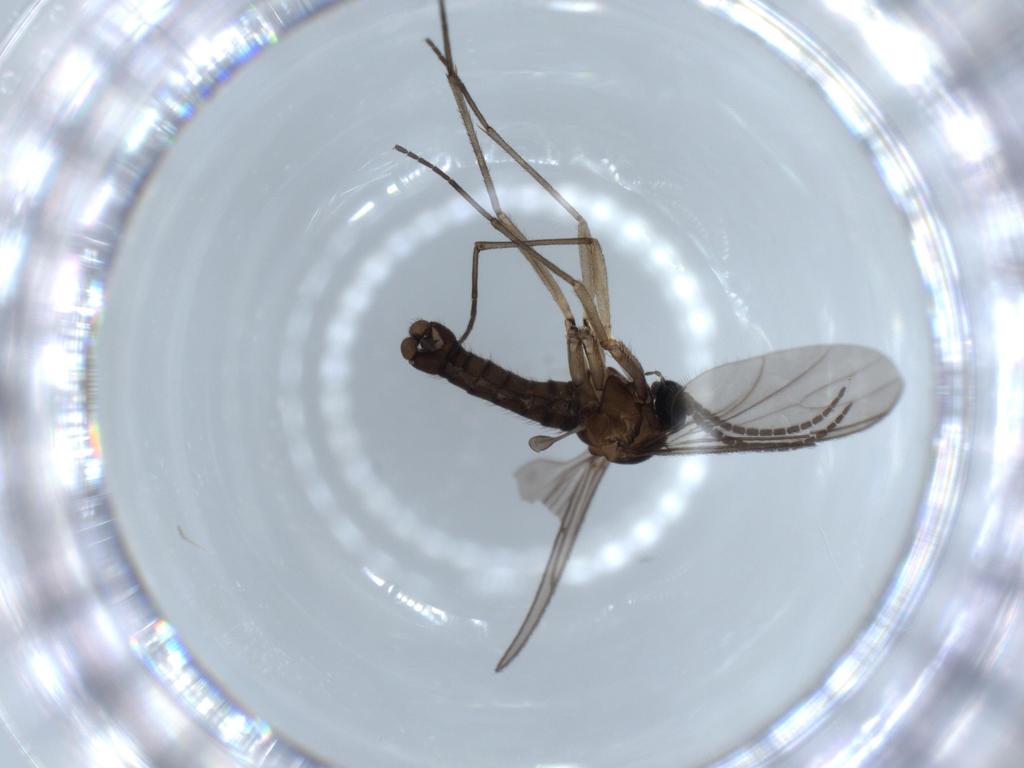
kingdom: Animalia
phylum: Arthropoda
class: Insecta
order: Diptera
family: Sciaridae
